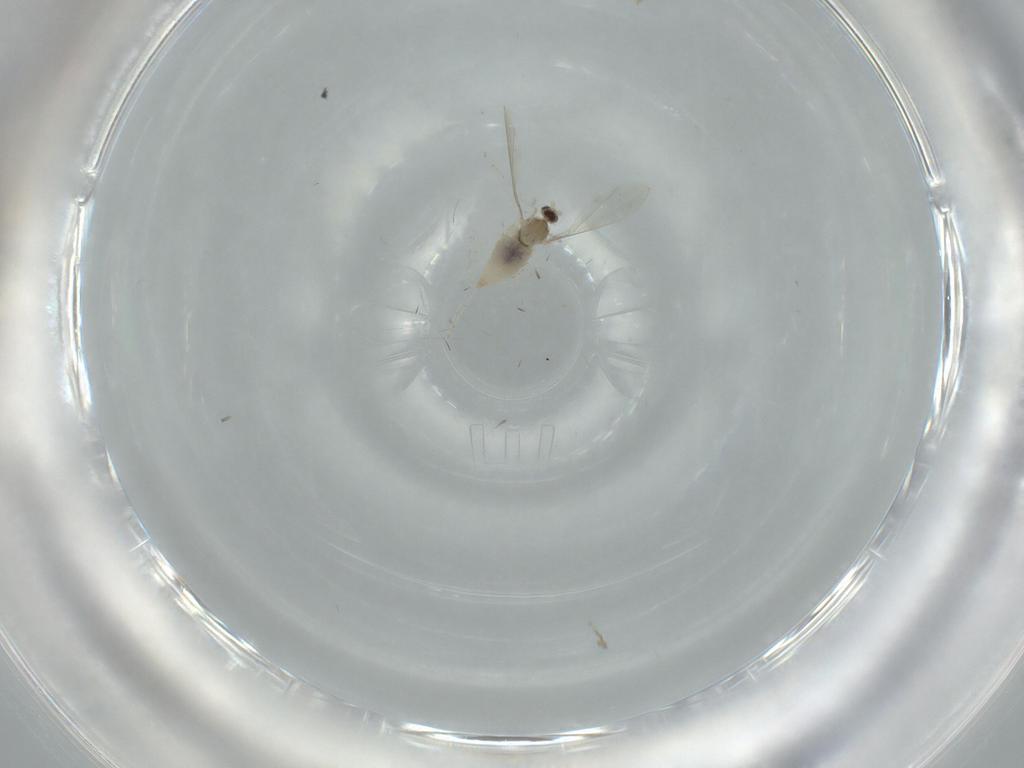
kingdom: Animalia
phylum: Arthropoda
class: Insecta
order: Diptera
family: Cecidomyiidae
